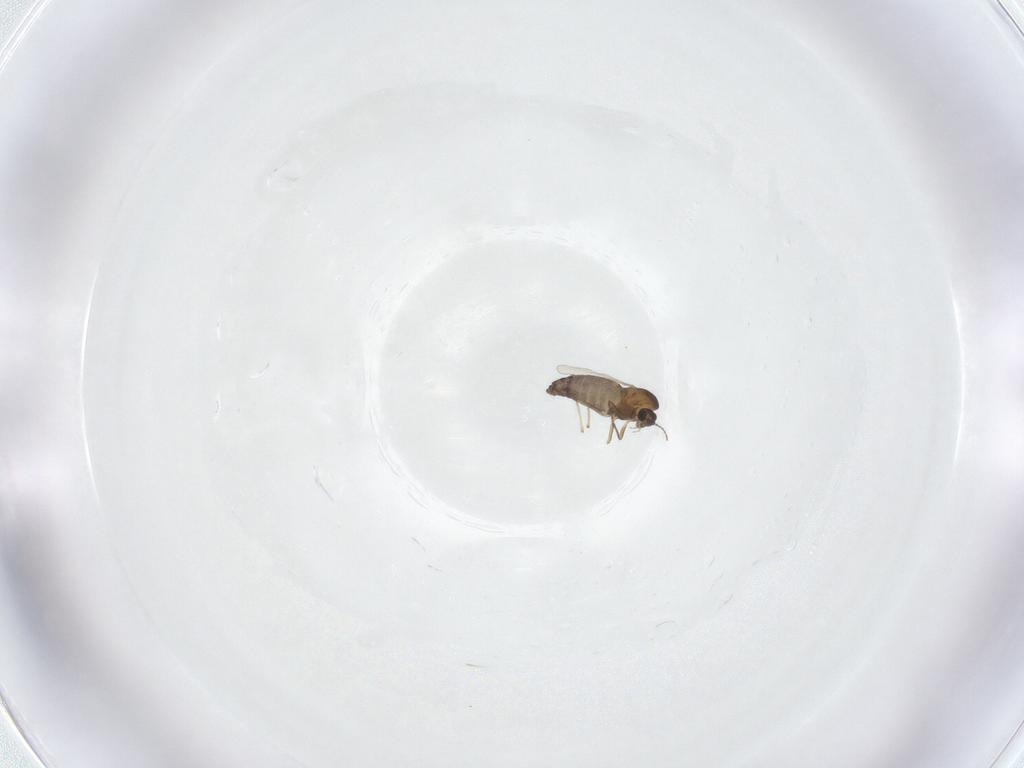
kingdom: Animalia
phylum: Arthropoda
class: Insecta
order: Diptera
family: Chironomidae
